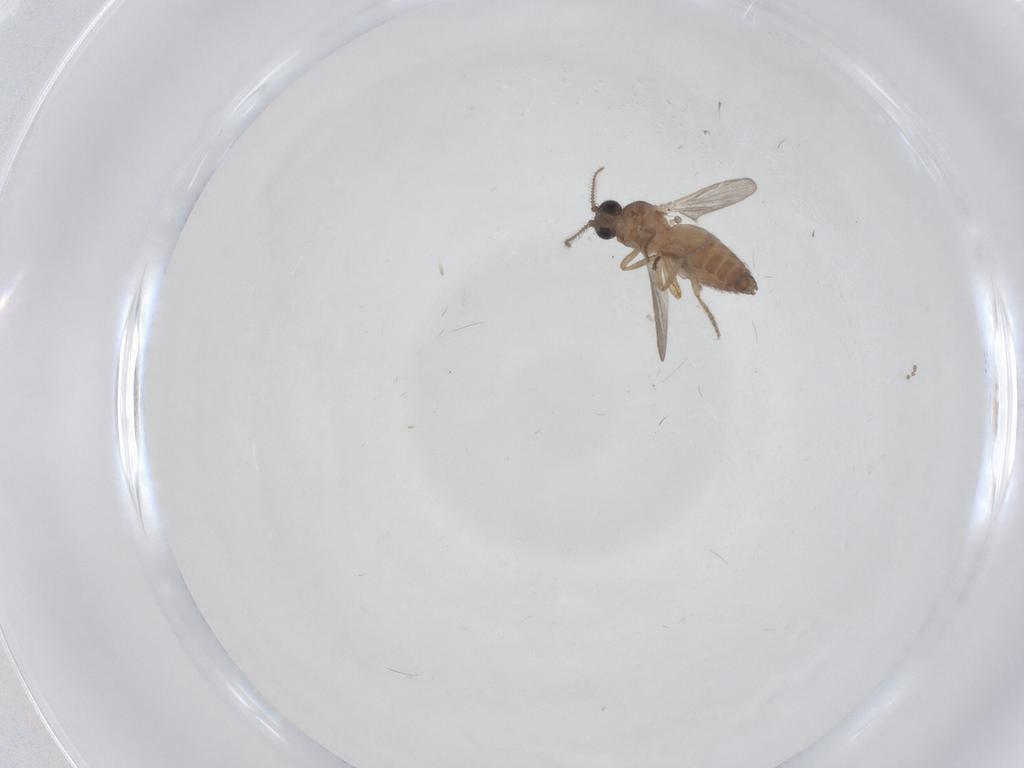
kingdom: Animalia
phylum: Arthropoda
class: Insecta
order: Diptera
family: Ceratopogonidae
